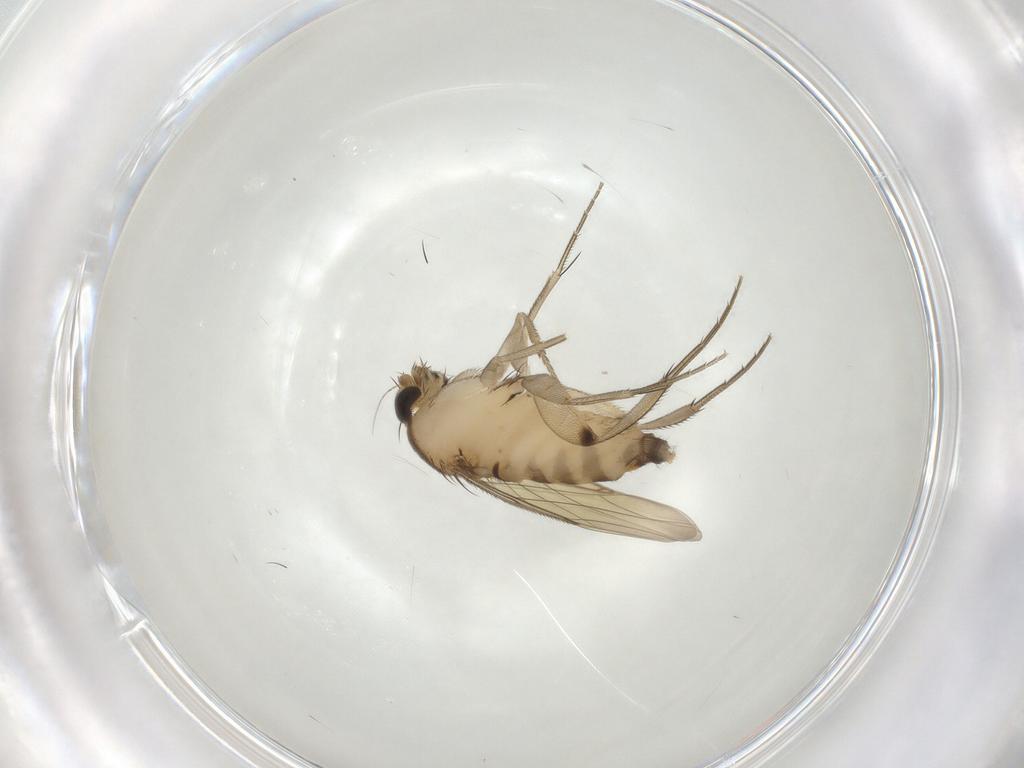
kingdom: Animalia
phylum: Arthropoda
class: Insecta
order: Diptera
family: Phoridae
